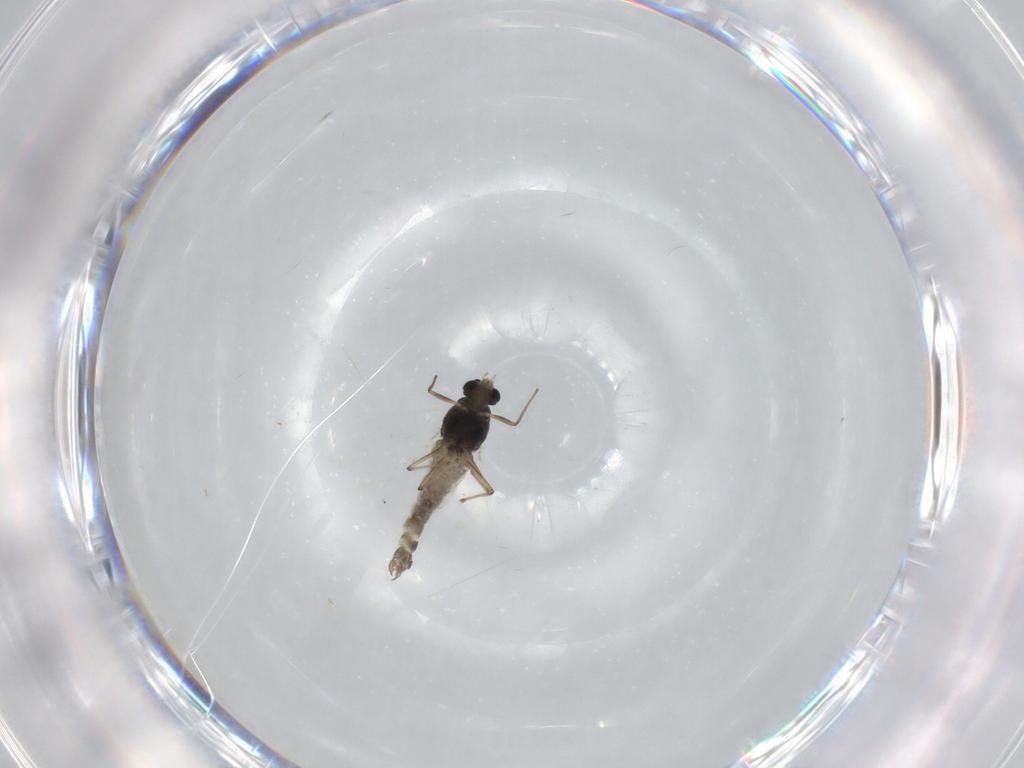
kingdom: Animalia
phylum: Arthropoda
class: Insecta
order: Diptera
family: Chironomidae
